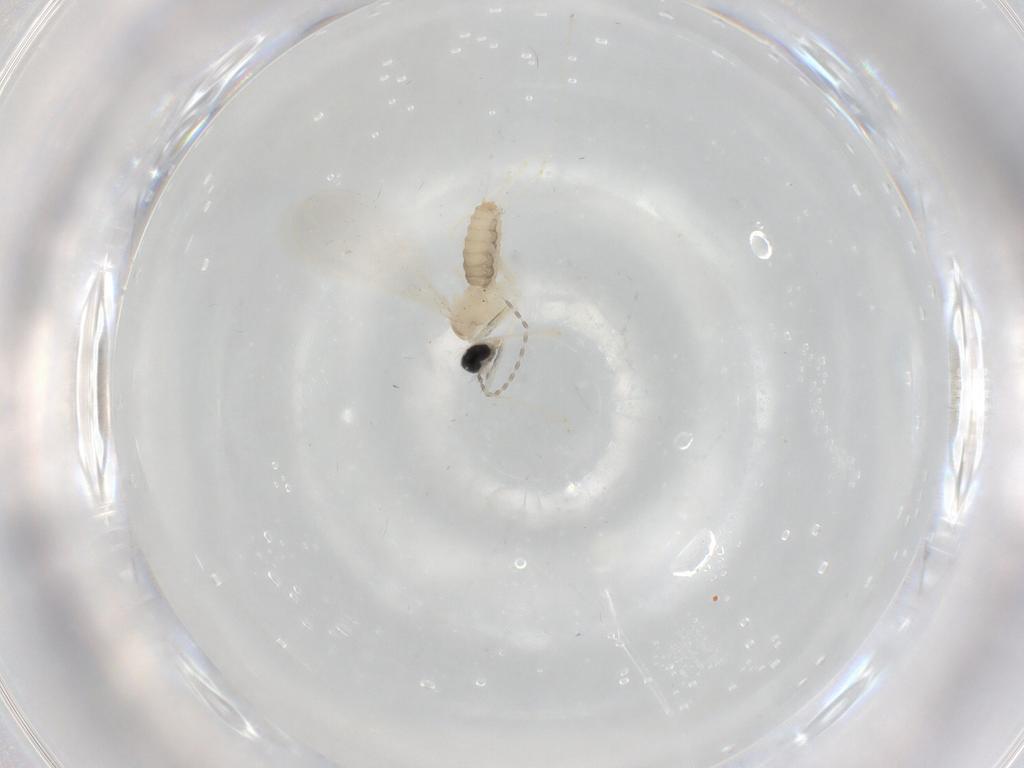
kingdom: Animalia
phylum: Arthropoda
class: Insecta
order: Diptera
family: Cecidomyiidae
